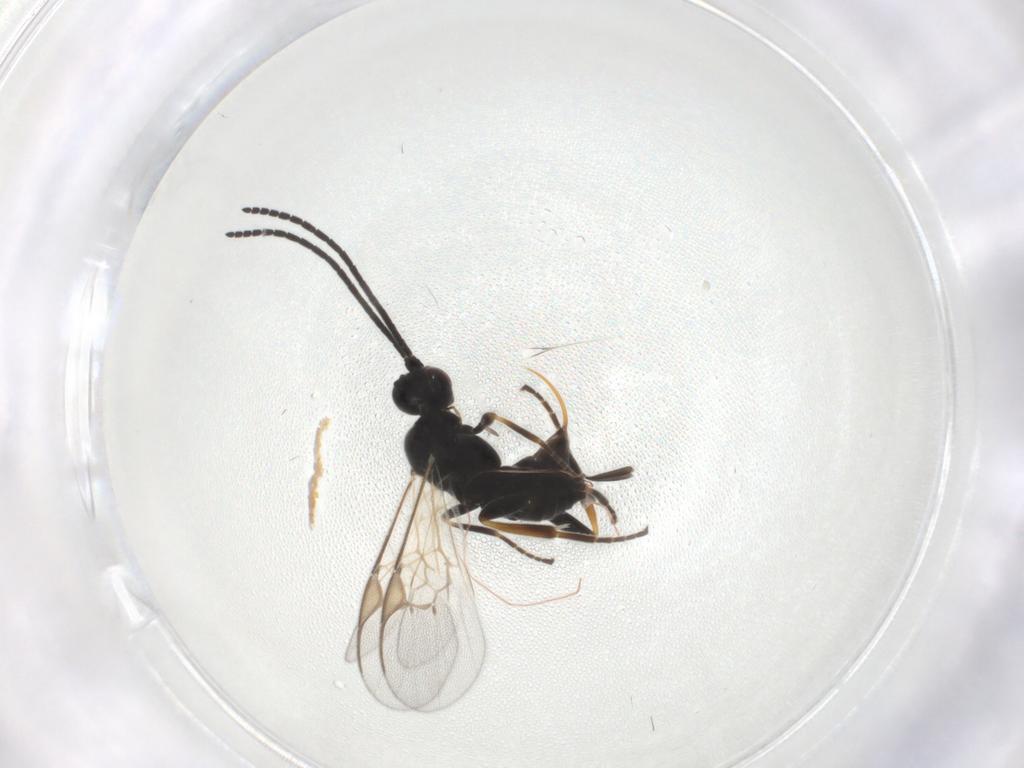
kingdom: Animalia
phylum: Arthropoda
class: Insecta
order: Hymenoptera
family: Braconidae
